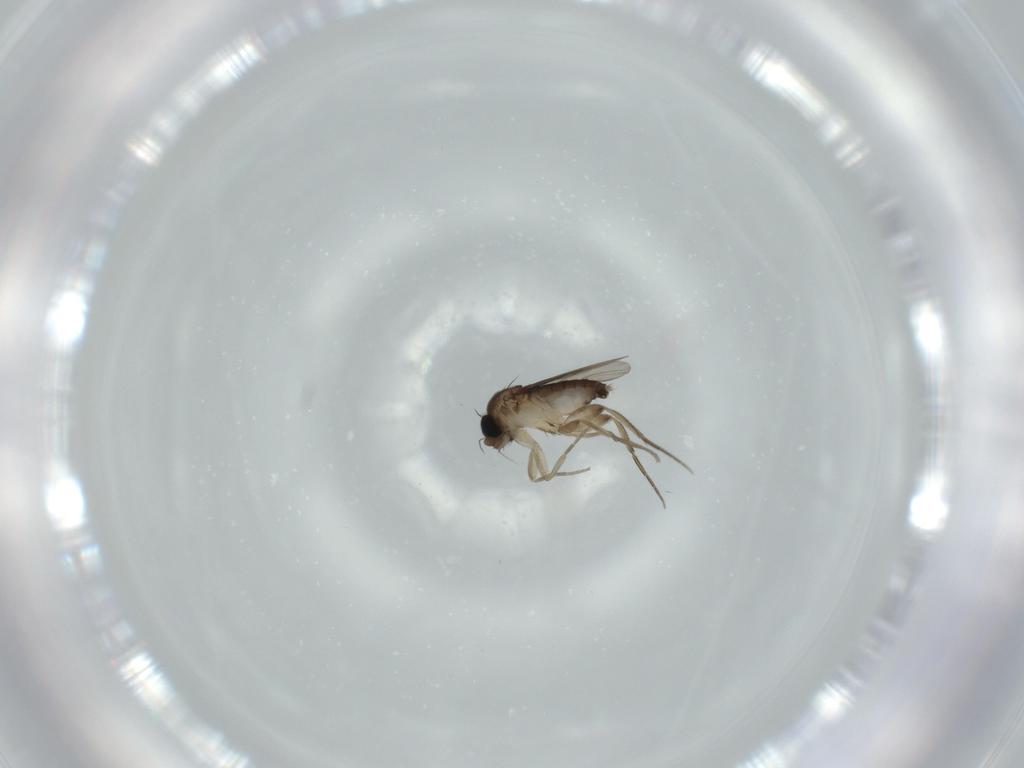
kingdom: Animalia
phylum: Arthropoda
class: Insecta
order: Diptera
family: Phoridae
